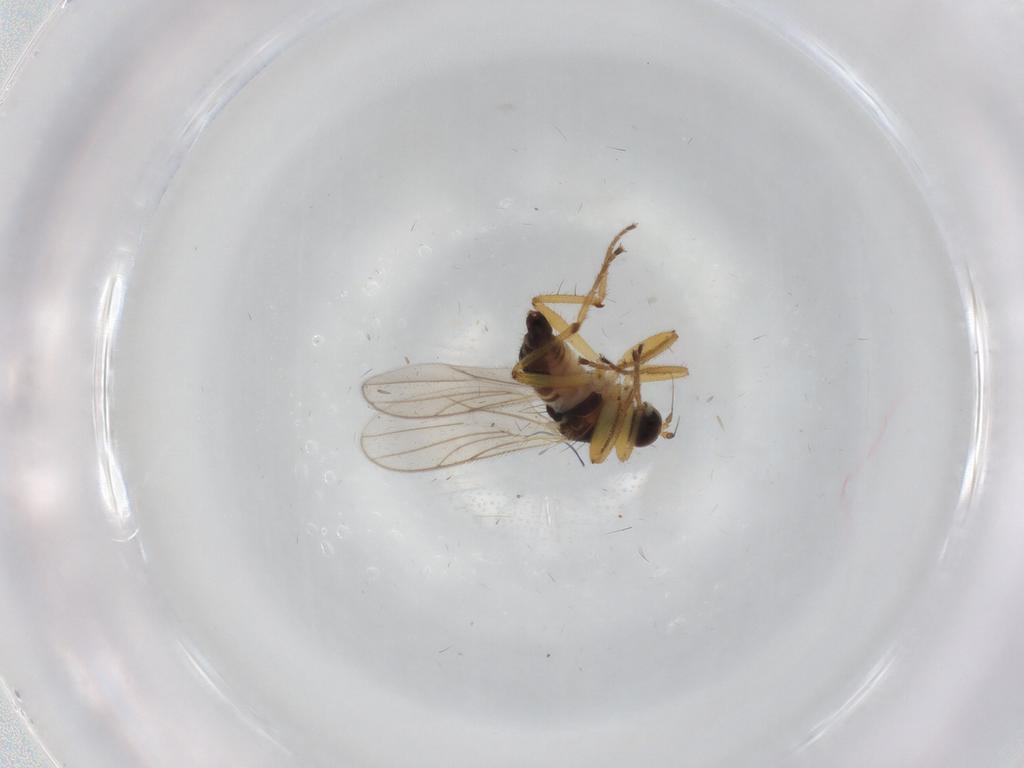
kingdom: Animalia
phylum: Arthropoda
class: Insecta
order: Diptera
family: Hybotidae
